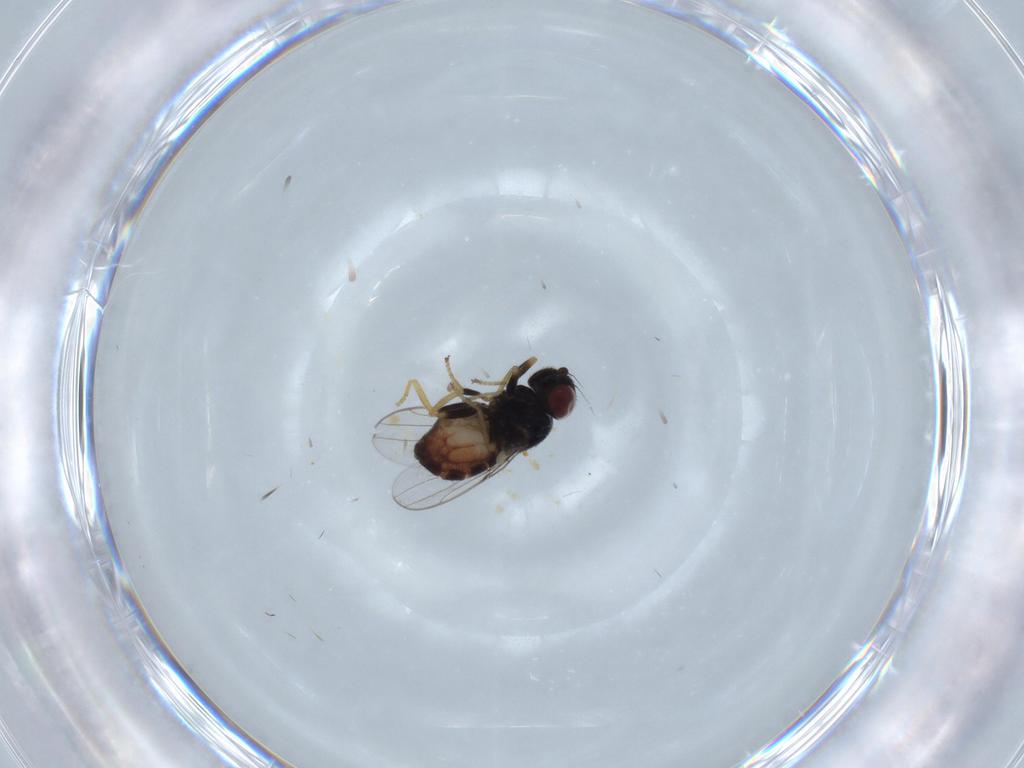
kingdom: Animalia
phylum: Arthropoda
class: Insecta
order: Diptera
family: Chloropidae
